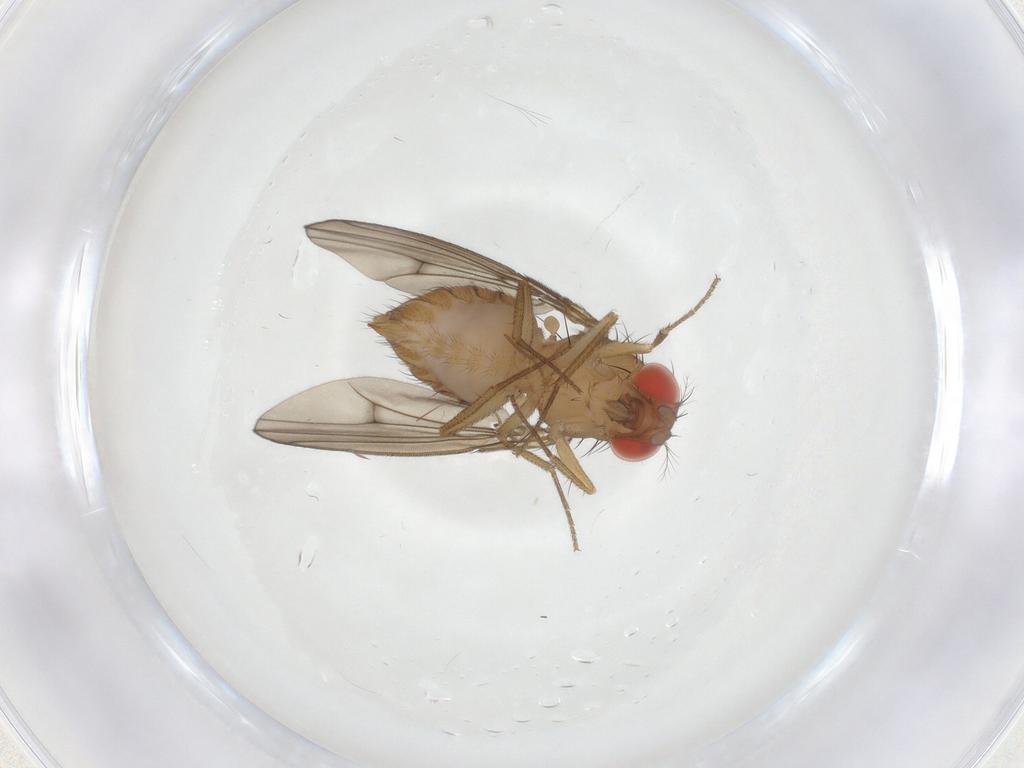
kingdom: Animalia
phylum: Arthropoda
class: Insecta
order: Diptera
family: Drosophilidae
